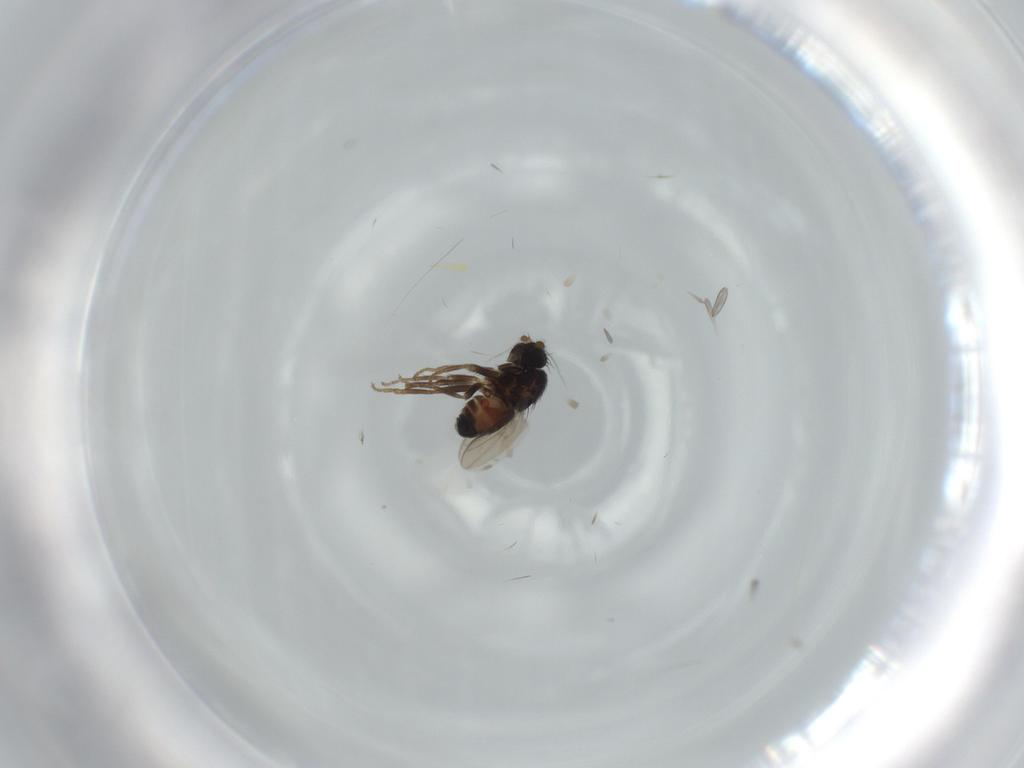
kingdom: Animalia
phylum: Arthropoda
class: Insecta
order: Diptera
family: Sphaeroceridae
